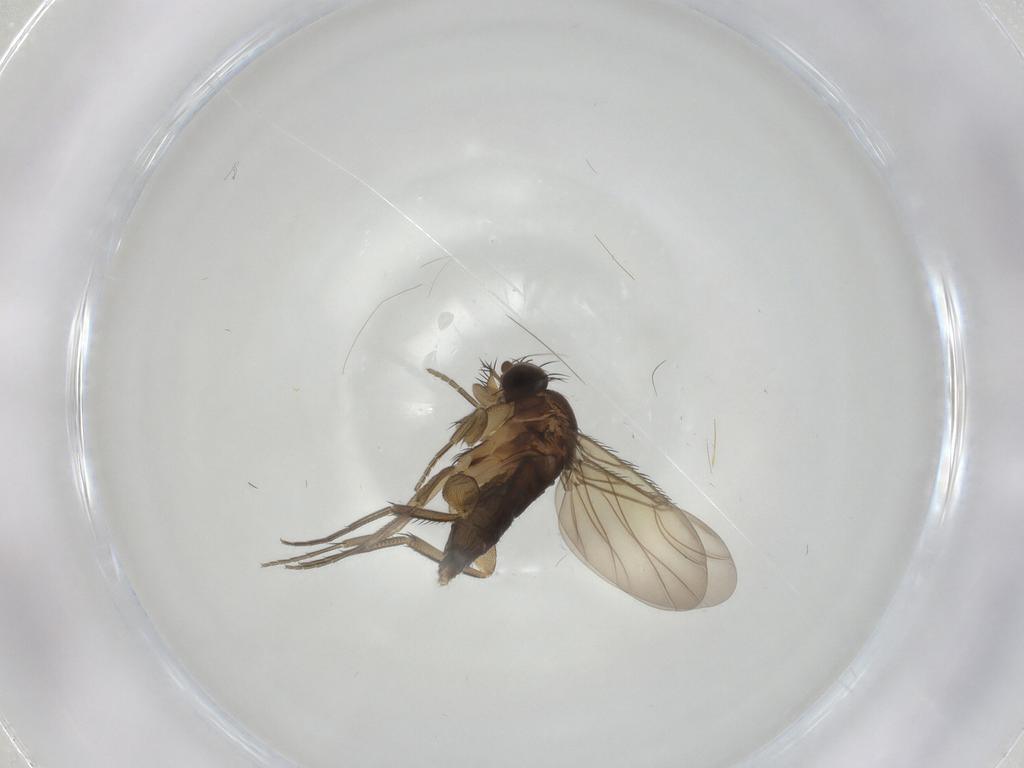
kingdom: Animalia
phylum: Arthropoda
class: Insecta
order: Diptera
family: Phoridae
